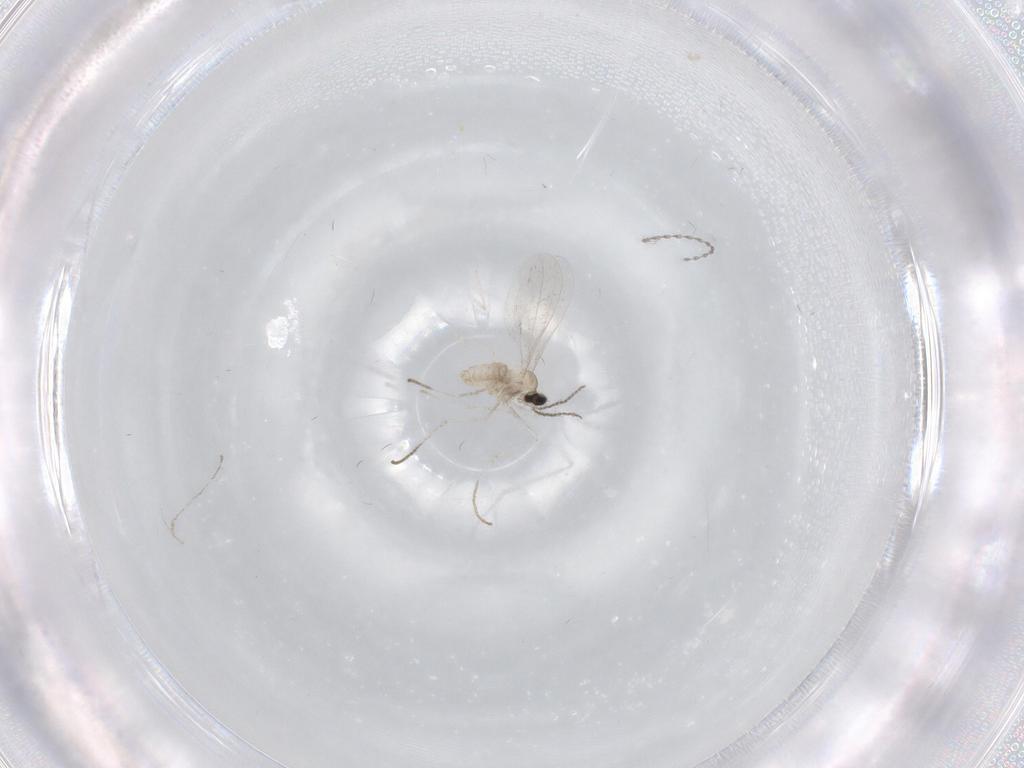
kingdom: Animalia
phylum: Arthropoda
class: Insecta
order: Diptera
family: Cecidomyiidae
